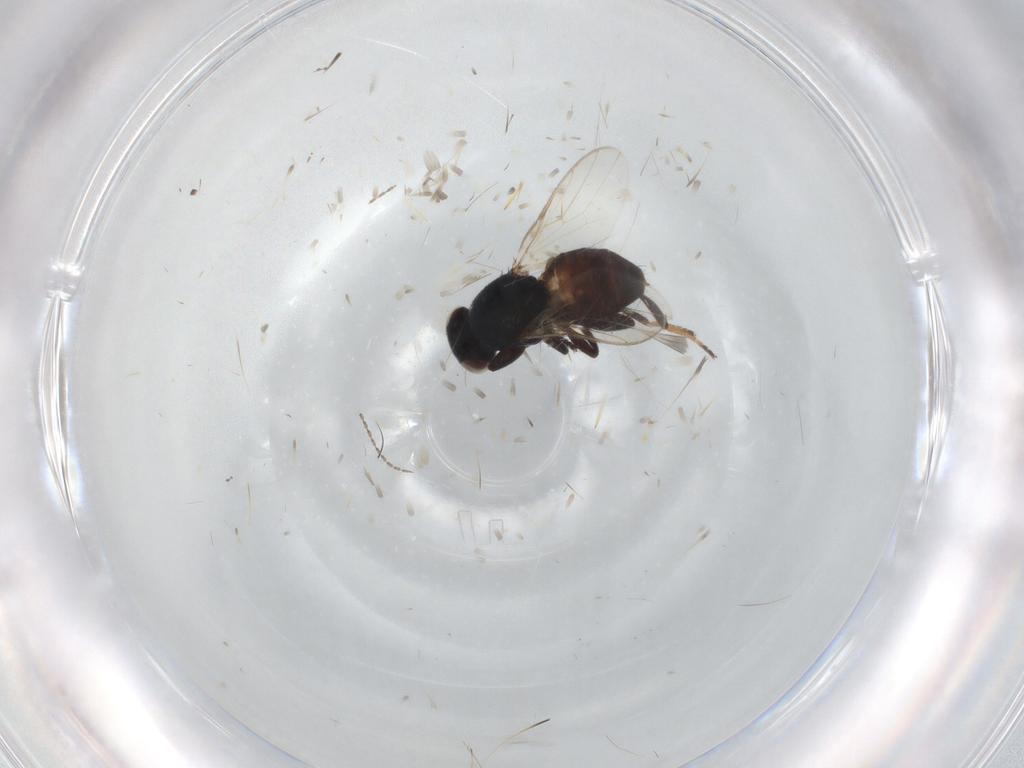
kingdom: Animalia
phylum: Arthropoda
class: Insecta
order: Diptera
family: Chloropidae
